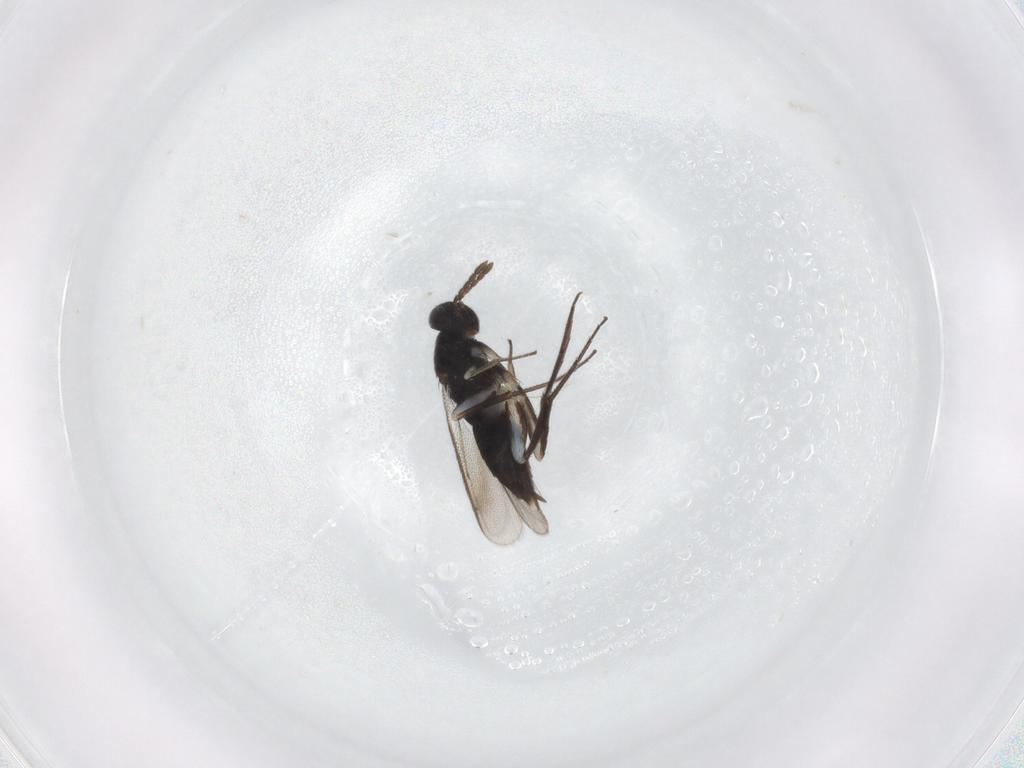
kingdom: Animalia
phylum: Arthropoda
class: Insecta
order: Hymenoptera
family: Eulophidae
